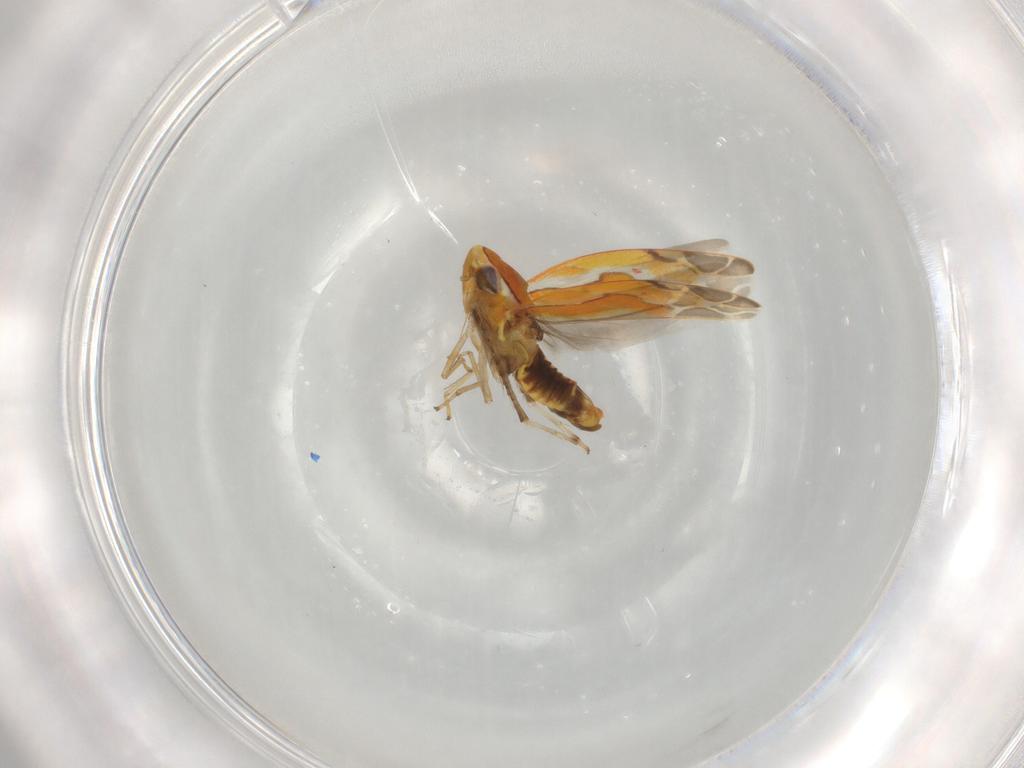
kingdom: Animalia
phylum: Arthropoda
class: Insecta
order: Hemiptera
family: Cicadellidae
